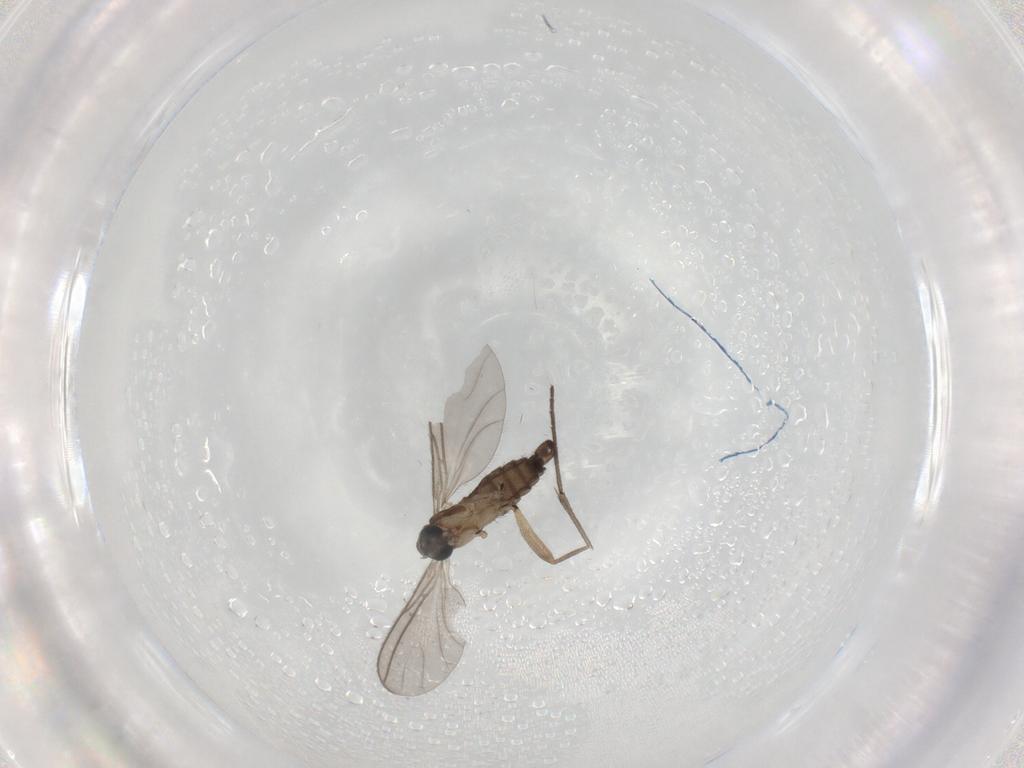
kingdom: Animalia
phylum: Arthropoda
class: Insecta
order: Diptera
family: Sciaridae
